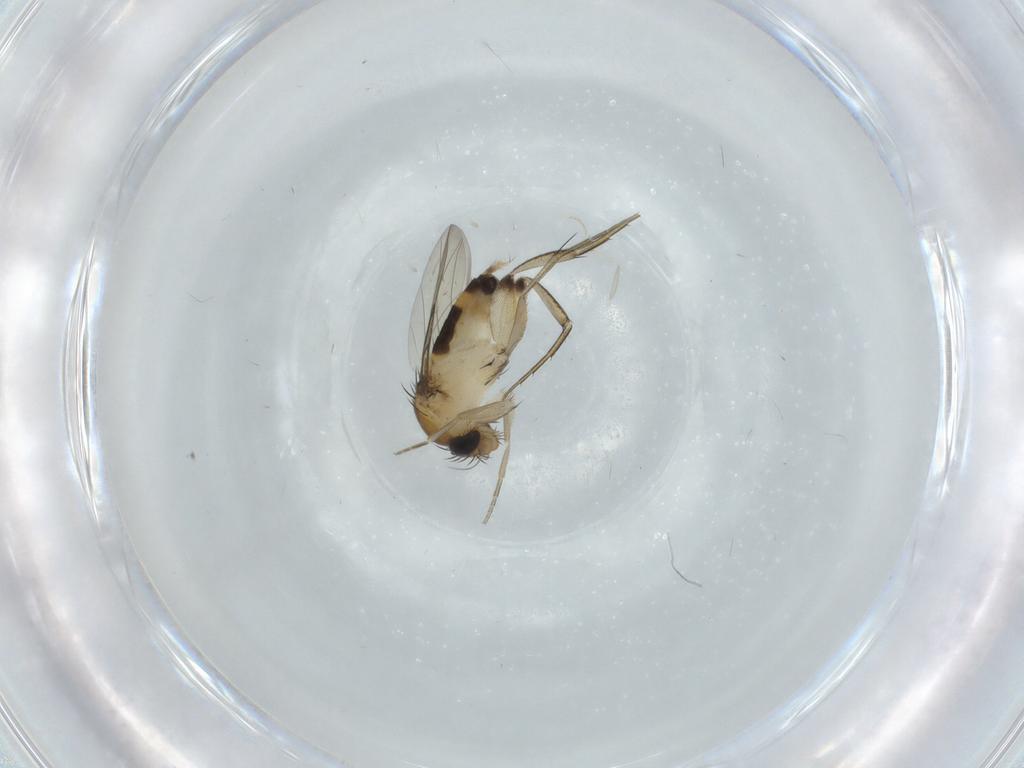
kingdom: Animalia
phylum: Arthropoda
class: Insecta
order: Diptera
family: Phoridae
